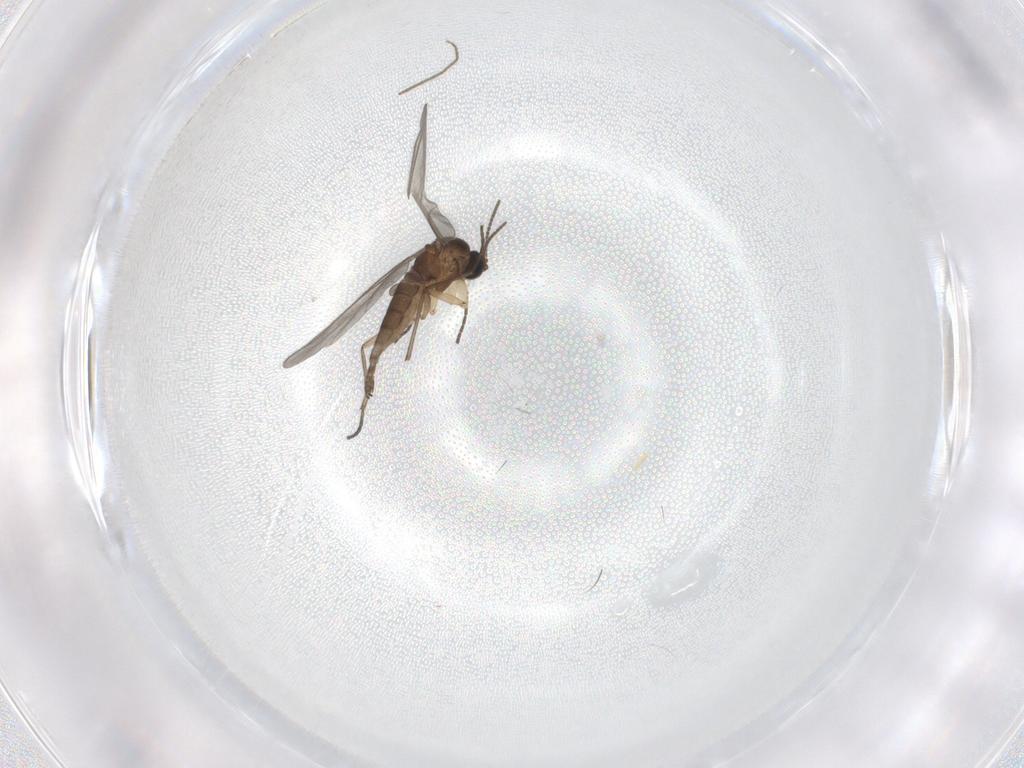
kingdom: Animalia
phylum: Arthropoda
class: Insecta
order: Diptera
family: Sciaridae
